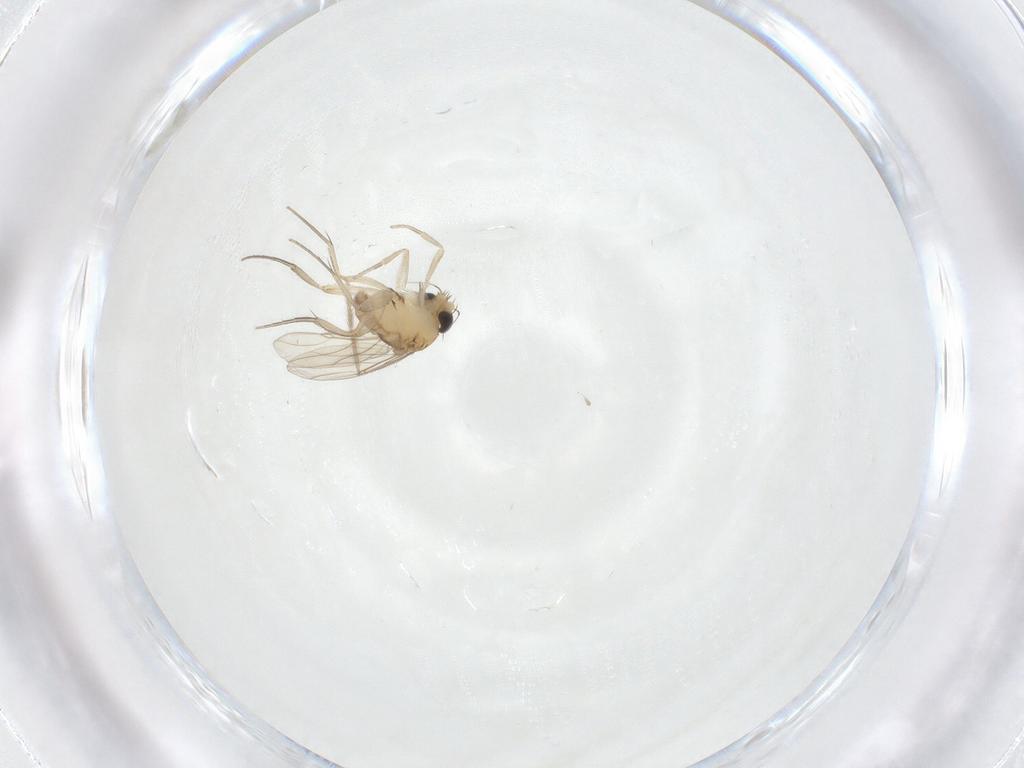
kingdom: Animalia
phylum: Arthropoda
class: Insecta
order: Diptera
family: Phoridae
